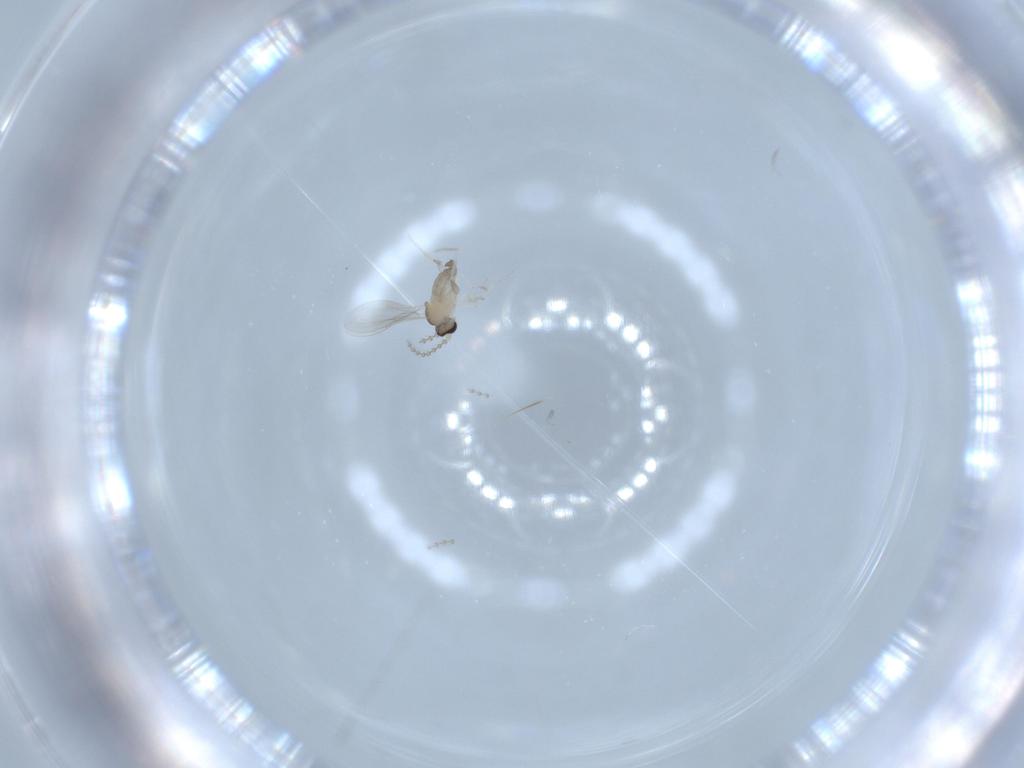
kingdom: Animalia
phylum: Arthropoda
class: Insecta
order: Diptera
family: Cecidomyiidae
